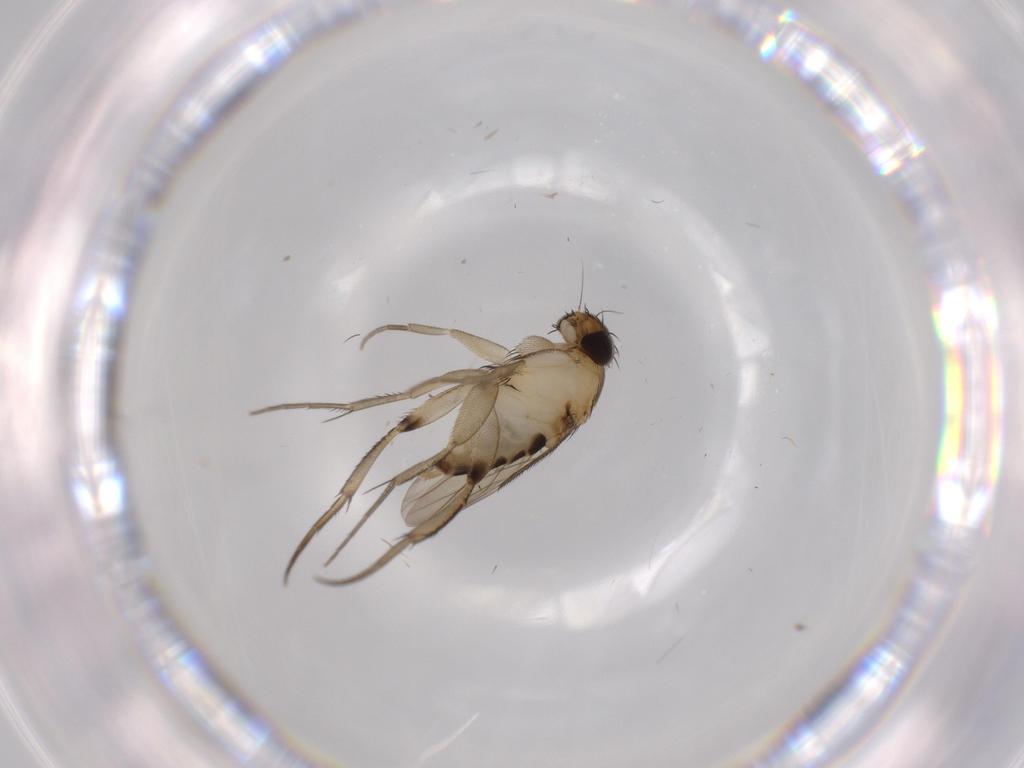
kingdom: Animalia
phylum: Arthropoda
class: Insecta
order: Diptera
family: Phoridae
